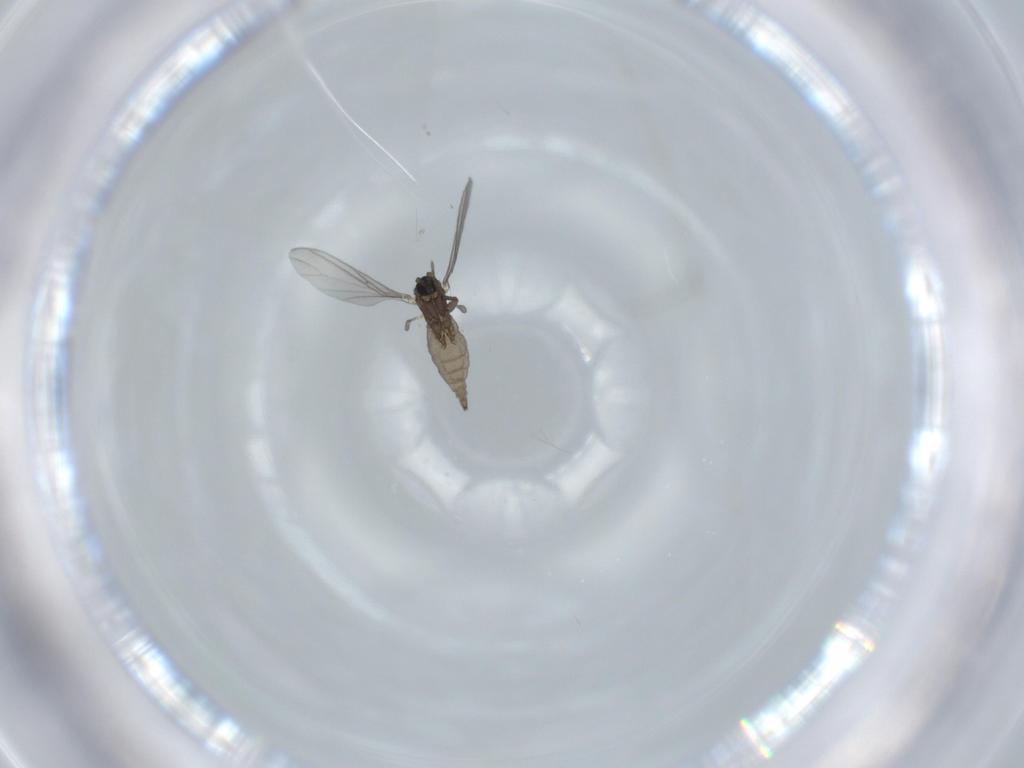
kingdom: Animalia
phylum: Arthropoda
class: Insecta
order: Diptera
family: Sciaridae
